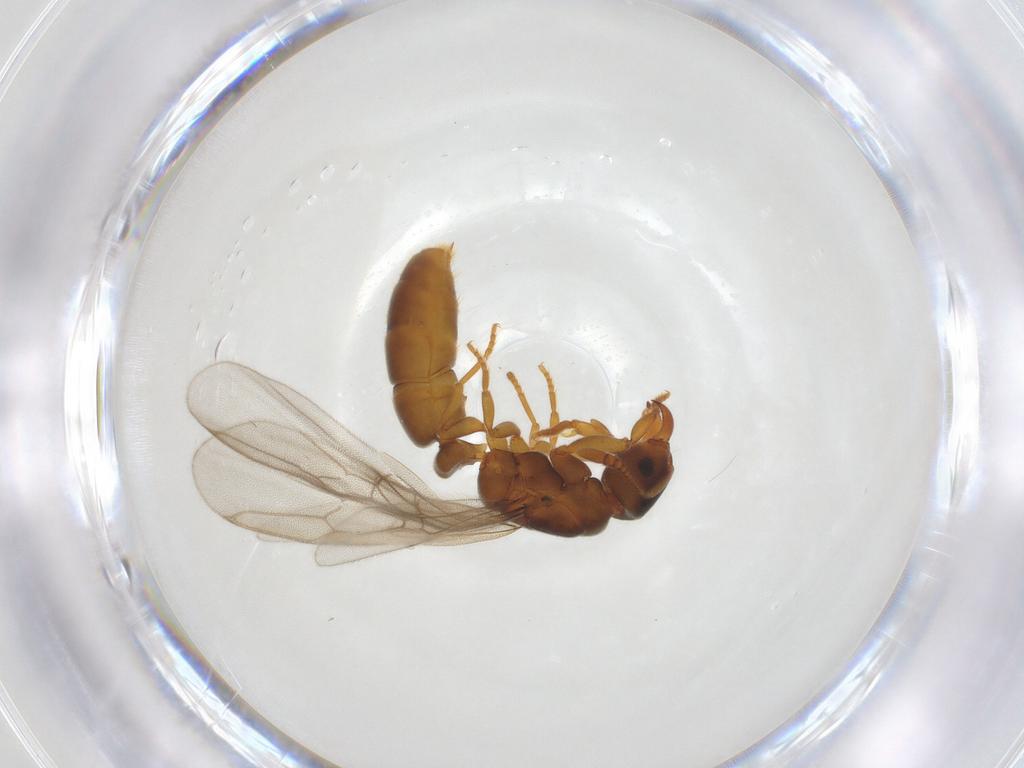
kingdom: Animalia
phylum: Arthropoda
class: Insecta
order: Hymenoptera
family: Formicidae
